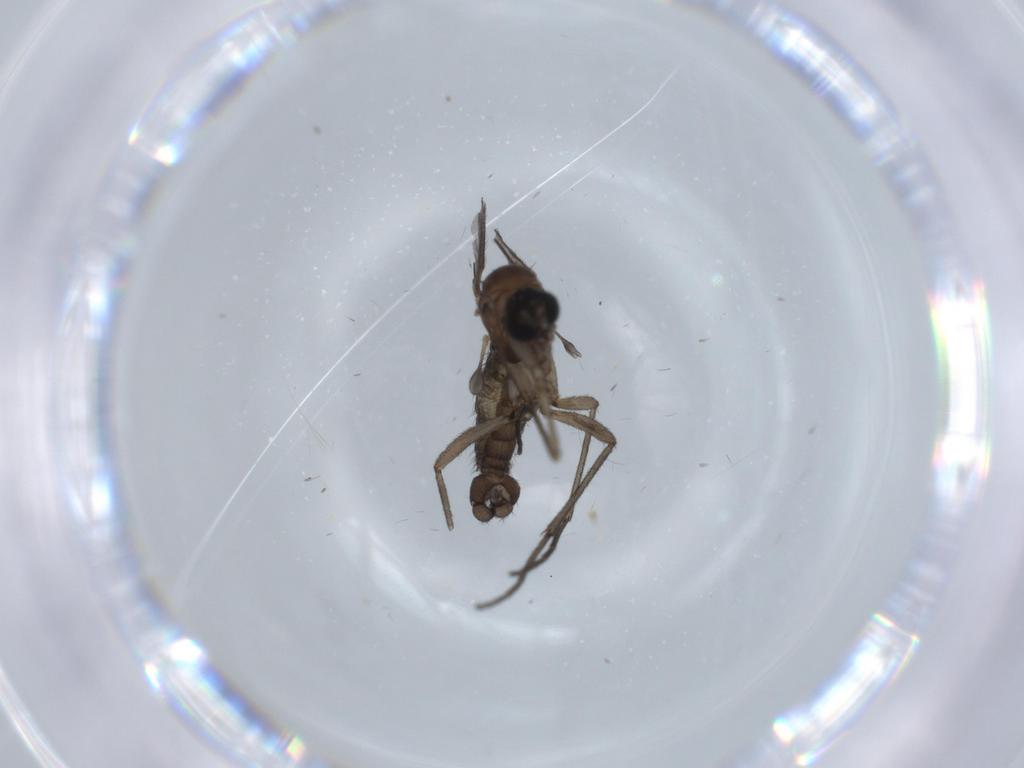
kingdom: Animalia
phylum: Arthropoda
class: Insecta
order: Diptera
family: Sciaridae
